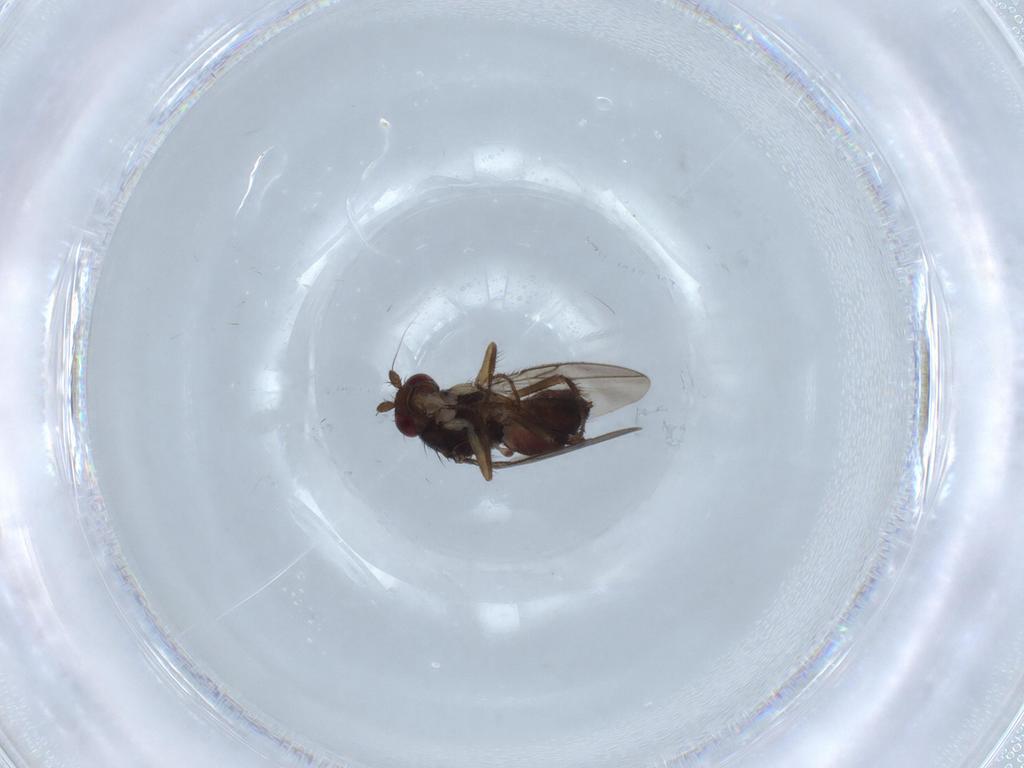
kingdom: Animalia
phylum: Arthropoda
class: Insecta
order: Diptera
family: Sphaeroceridae
